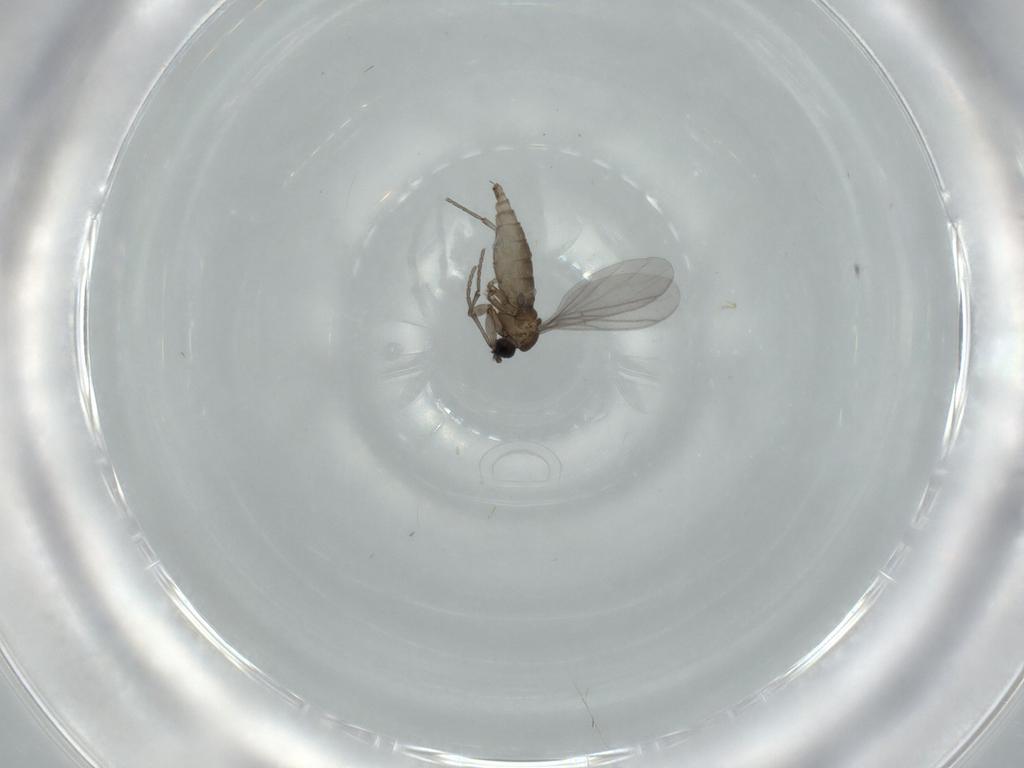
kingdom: Animalia
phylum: Arthropoda
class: Insecta
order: Diptera
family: Sciaridae
